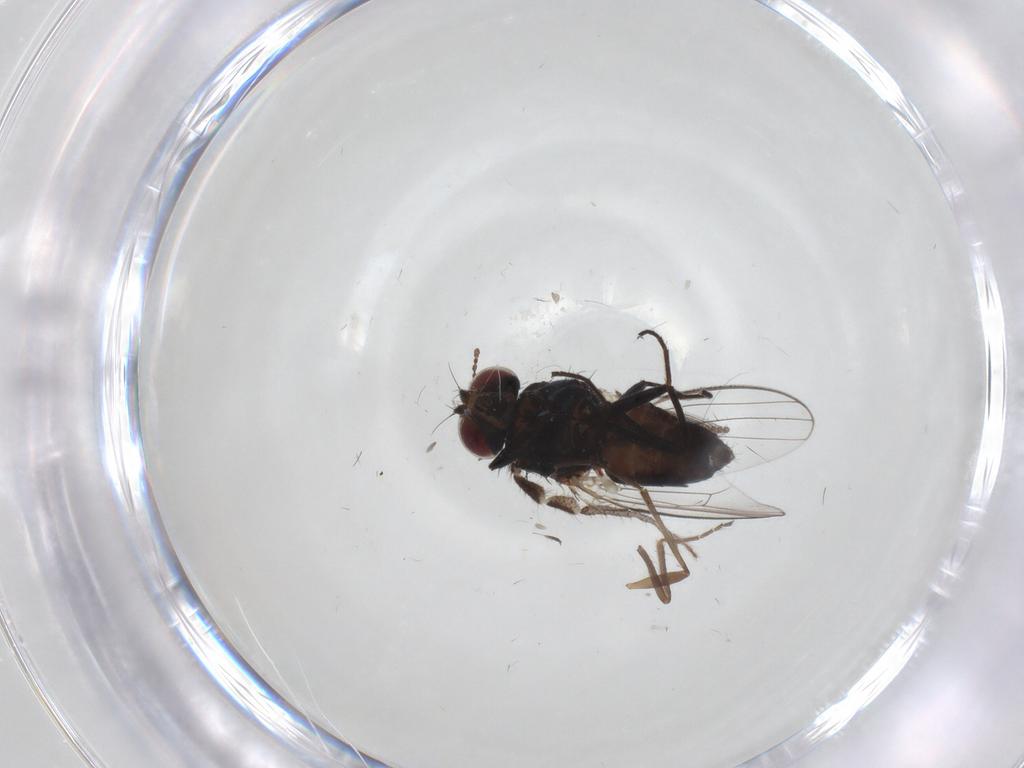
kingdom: Animalia
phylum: Arthropoda
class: Insecta
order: Diptera
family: Carnidae
